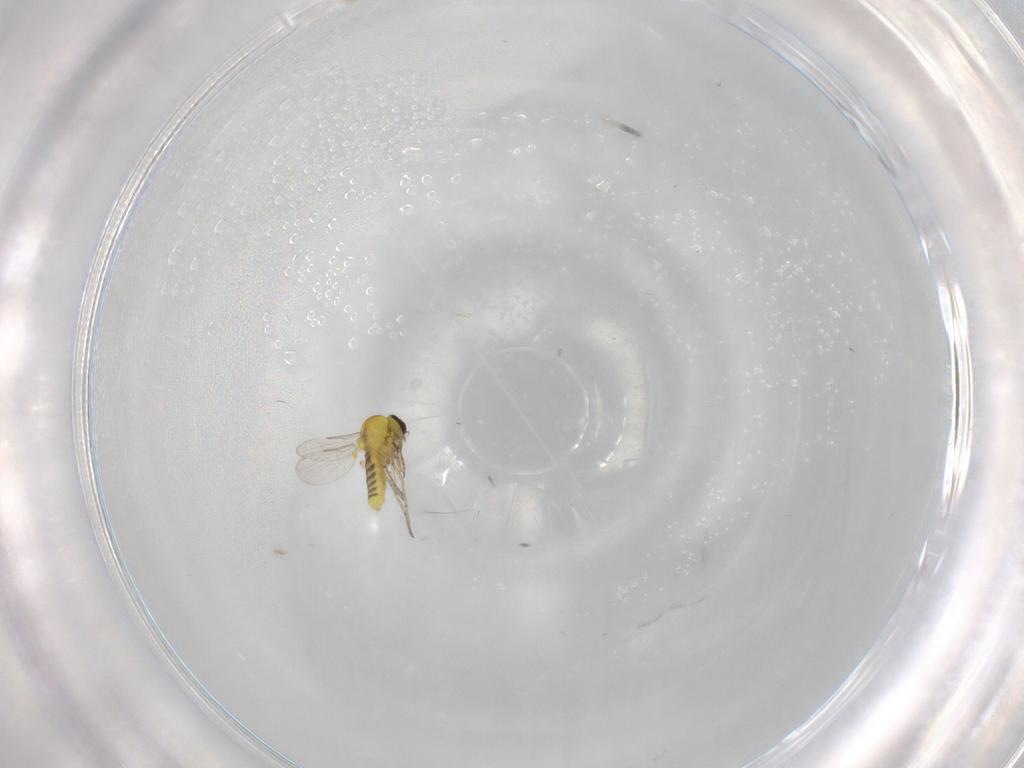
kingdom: Animalia
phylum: Arthropoda
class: Insecta
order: Diptera
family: Ceratopogonidae
